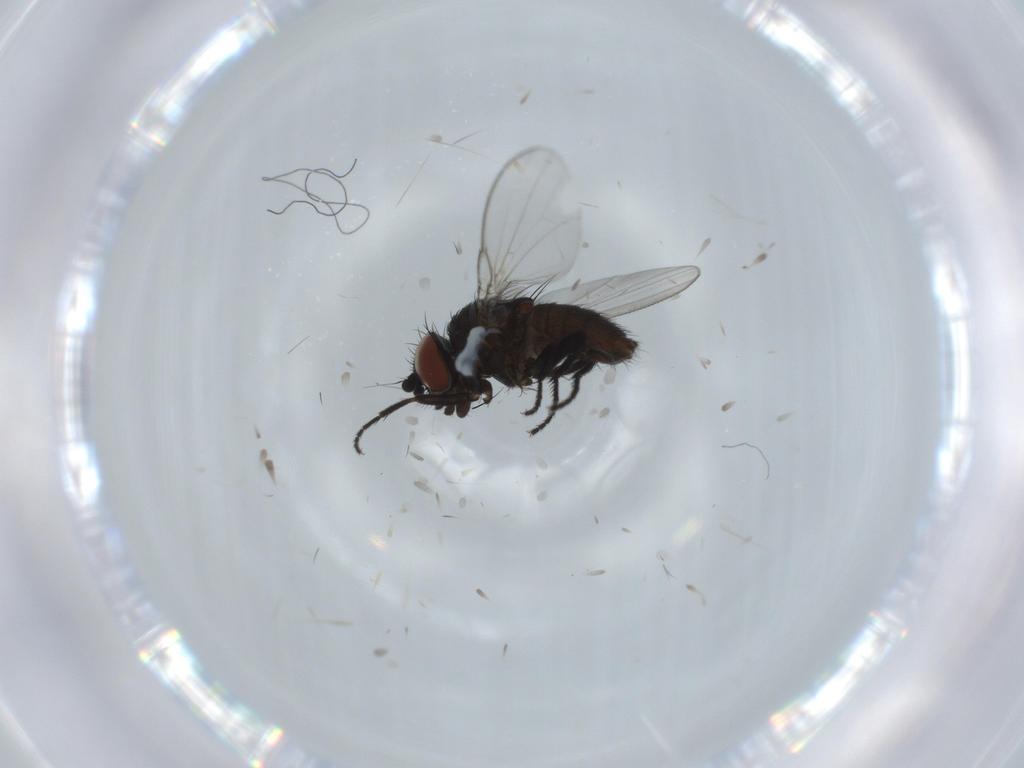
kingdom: Animalia
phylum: Arthropoda
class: Insecta
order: Diptera
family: Milichiidae
